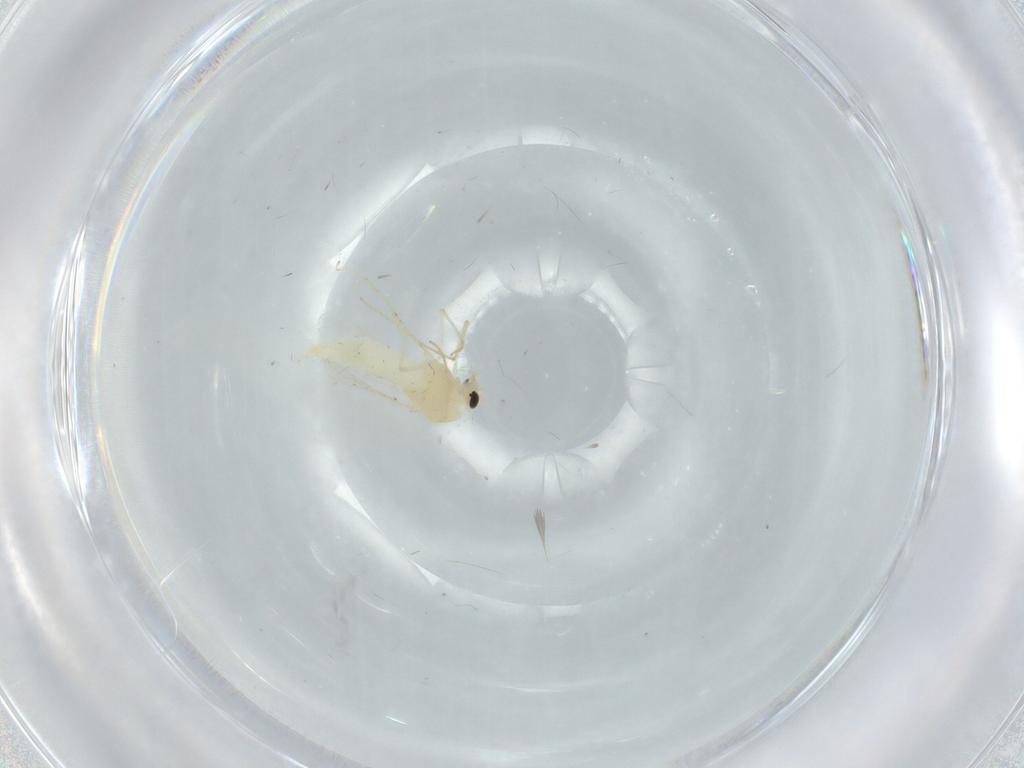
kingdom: Animalia
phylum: Arthropoda
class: Insecta
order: Diptera
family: Chironomidae
